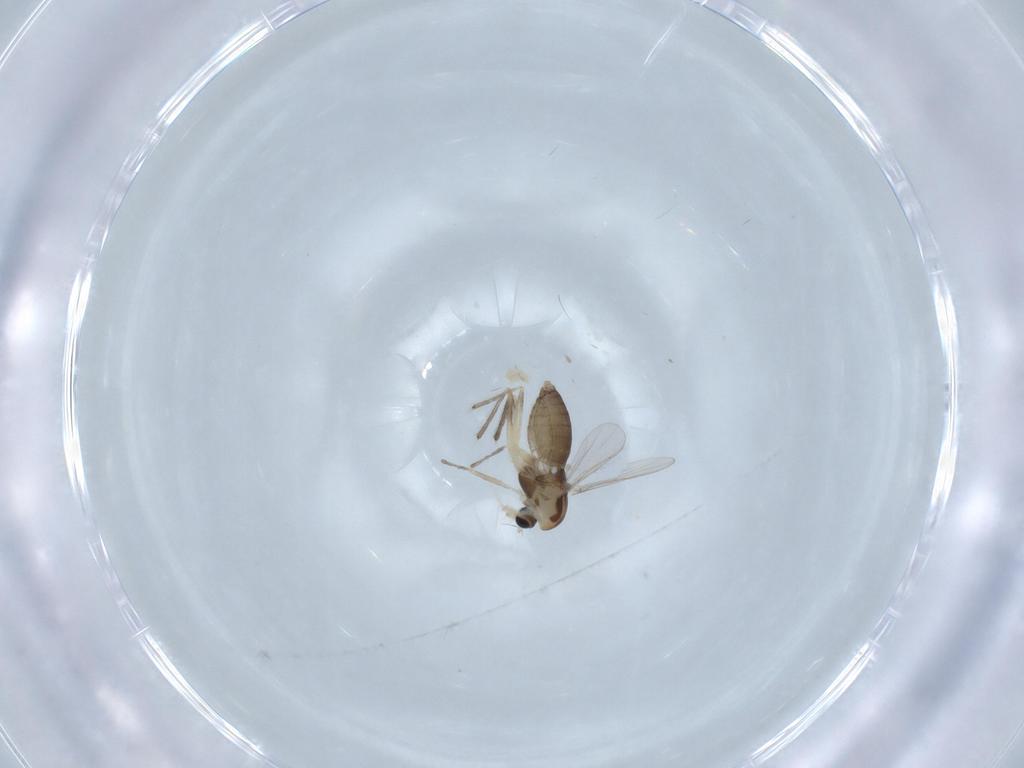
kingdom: Animalia
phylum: Arthropoda
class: Insecta
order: Diptera
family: Chironomidae
